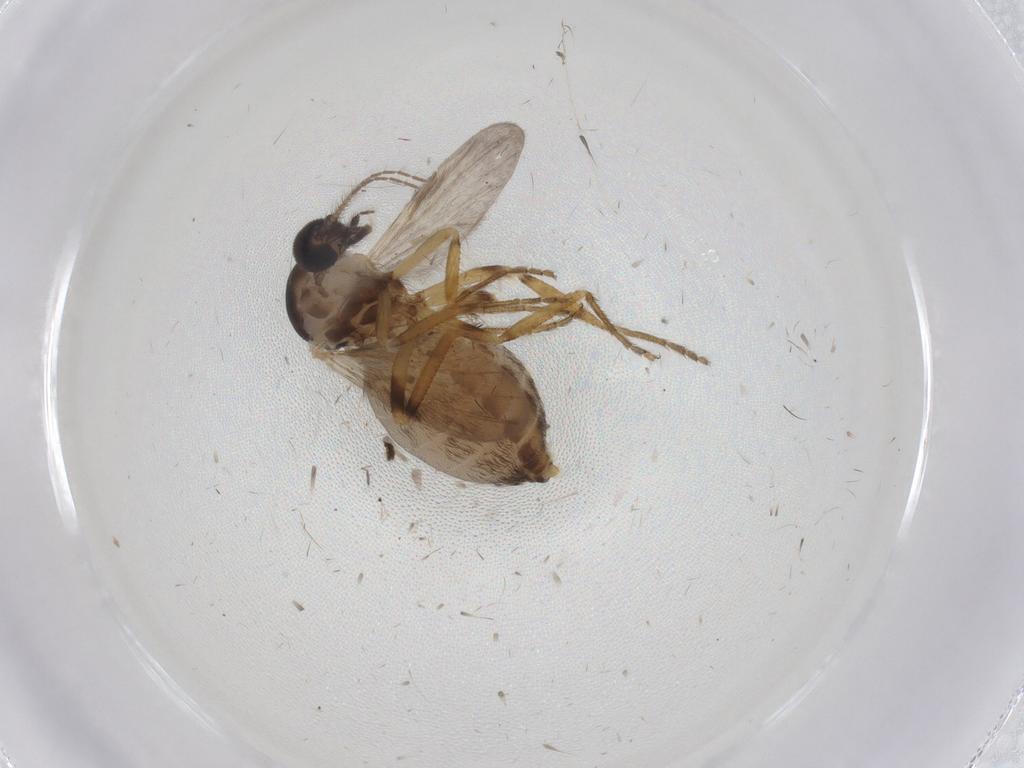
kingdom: Animalia
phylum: Arthropoda
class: Insecta
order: Diptera
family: Ceratopogonidae
